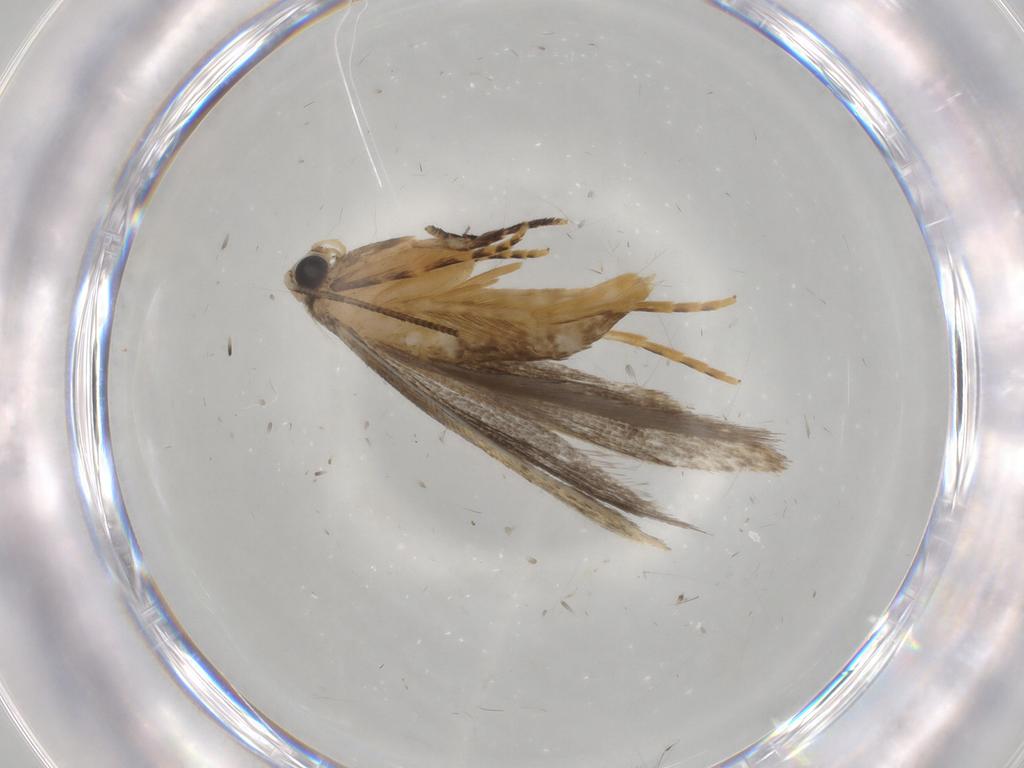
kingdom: Animalia
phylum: Arthropoda
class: Insecta
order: Lepidoptera
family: Tineidae
